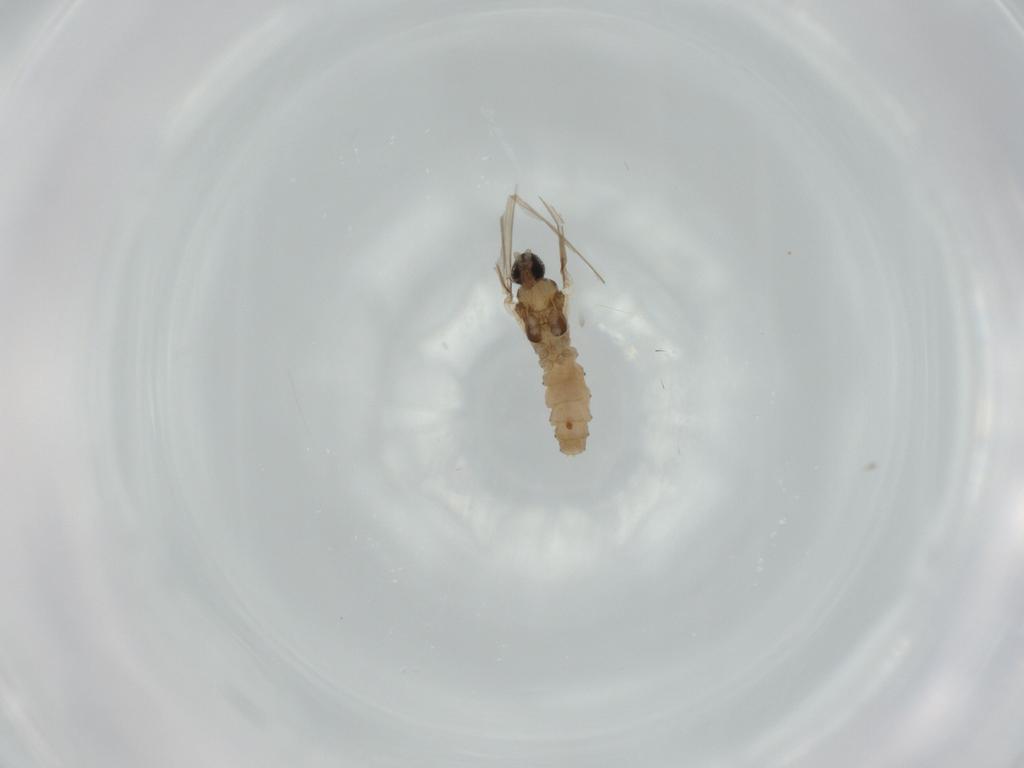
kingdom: Animalia
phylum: Arthropoda
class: Insecta
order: Diptera
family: Cecidomyiidae
